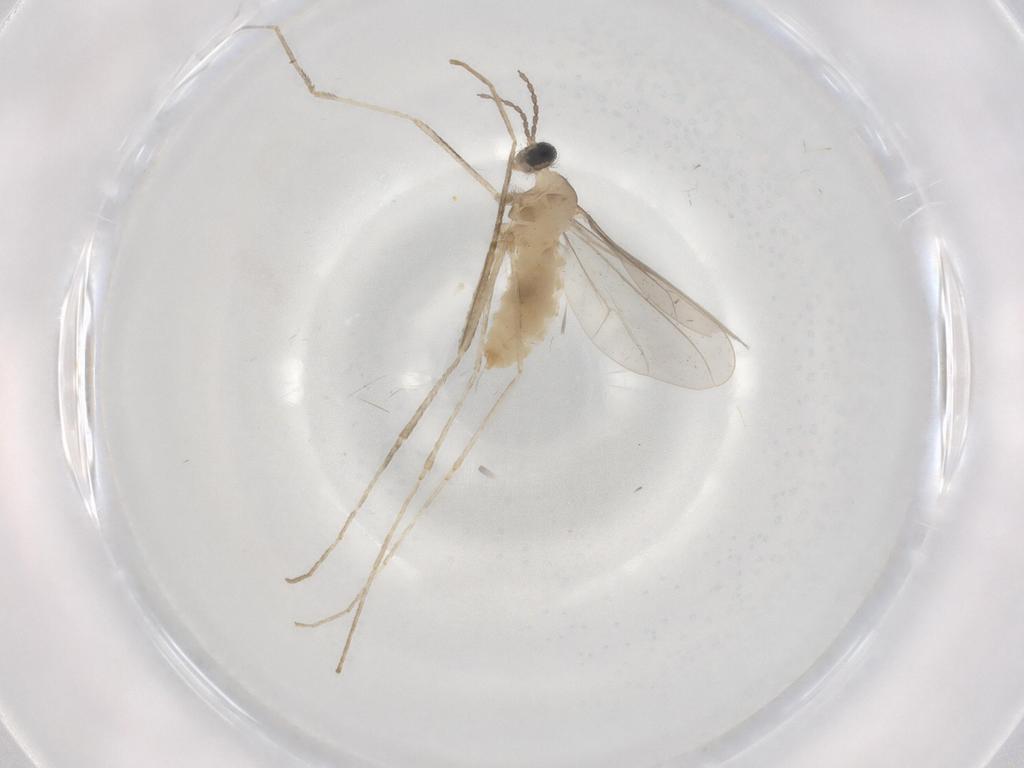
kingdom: Animalia
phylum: Arthropoda
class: Insecta
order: Diptera
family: Cecidomyiidae
